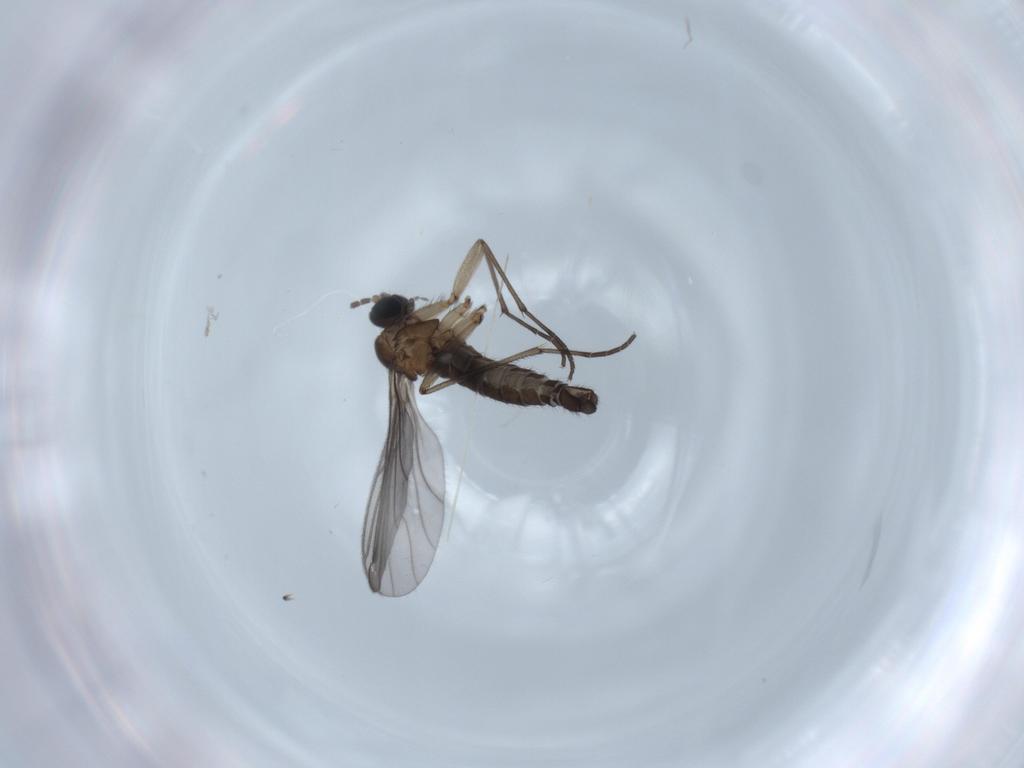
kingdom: Animalia
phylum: Arthropoda
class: Insecta
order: Diptera
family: Sciaridae
